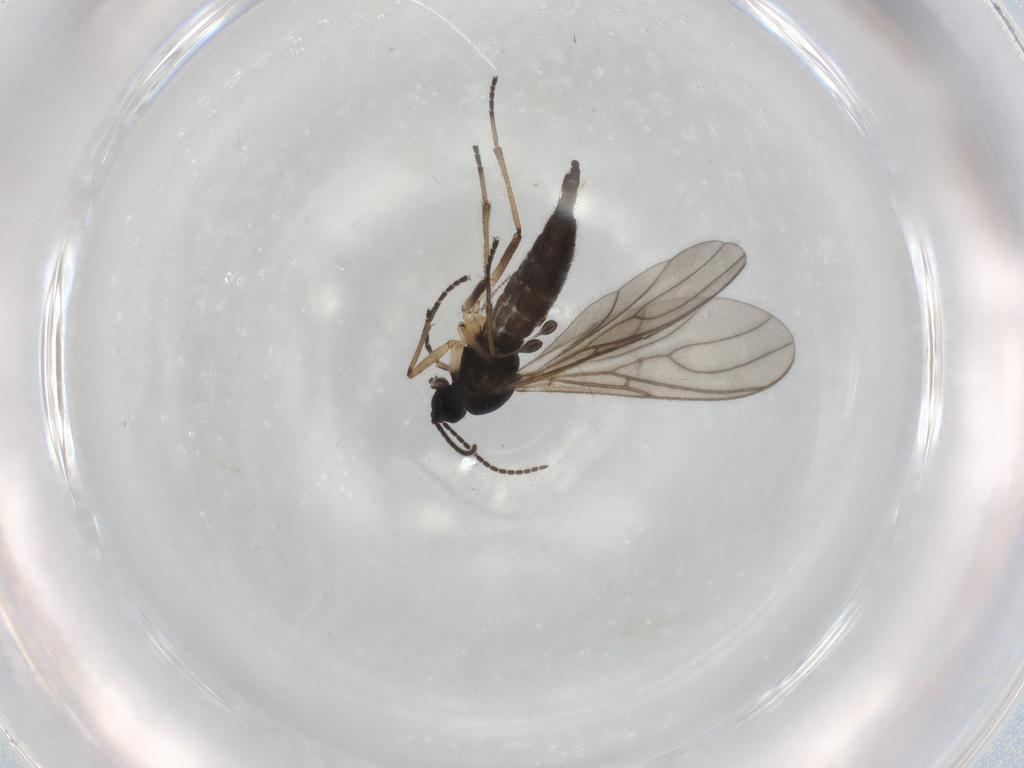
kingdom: Animalia
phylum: Arthropoda
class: Insecta
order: Diptera
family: Sciaridae
